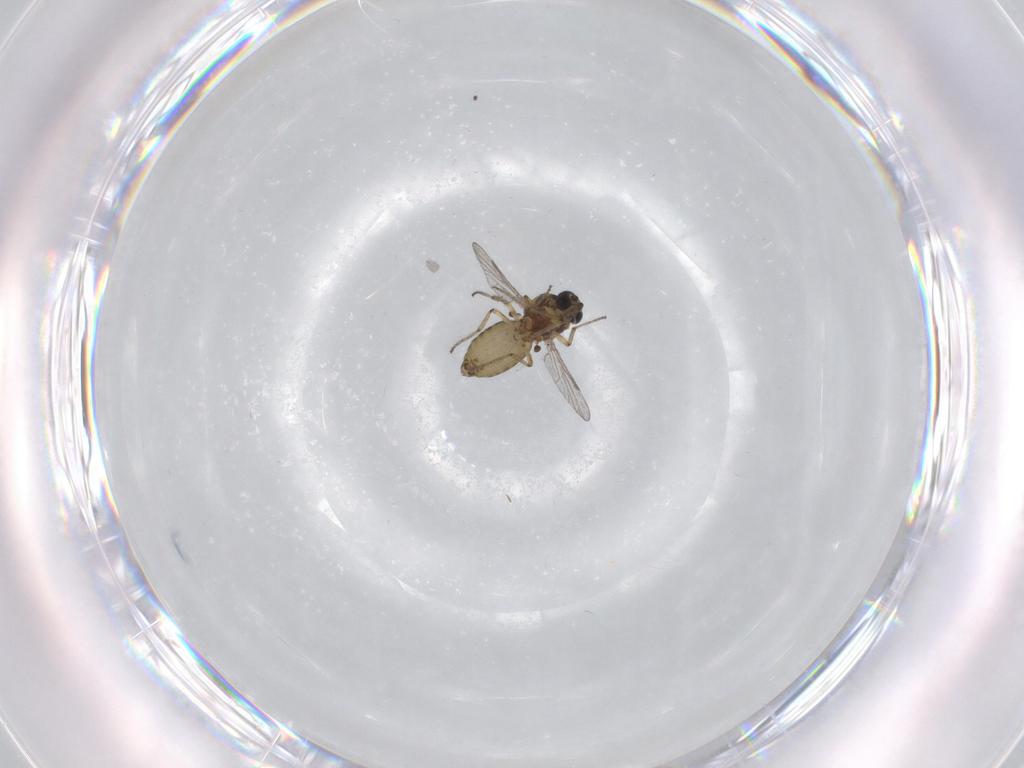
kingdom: Animalia
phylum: Arthropoda
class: Insecta
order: Diptera
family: Ceratopogonidae
